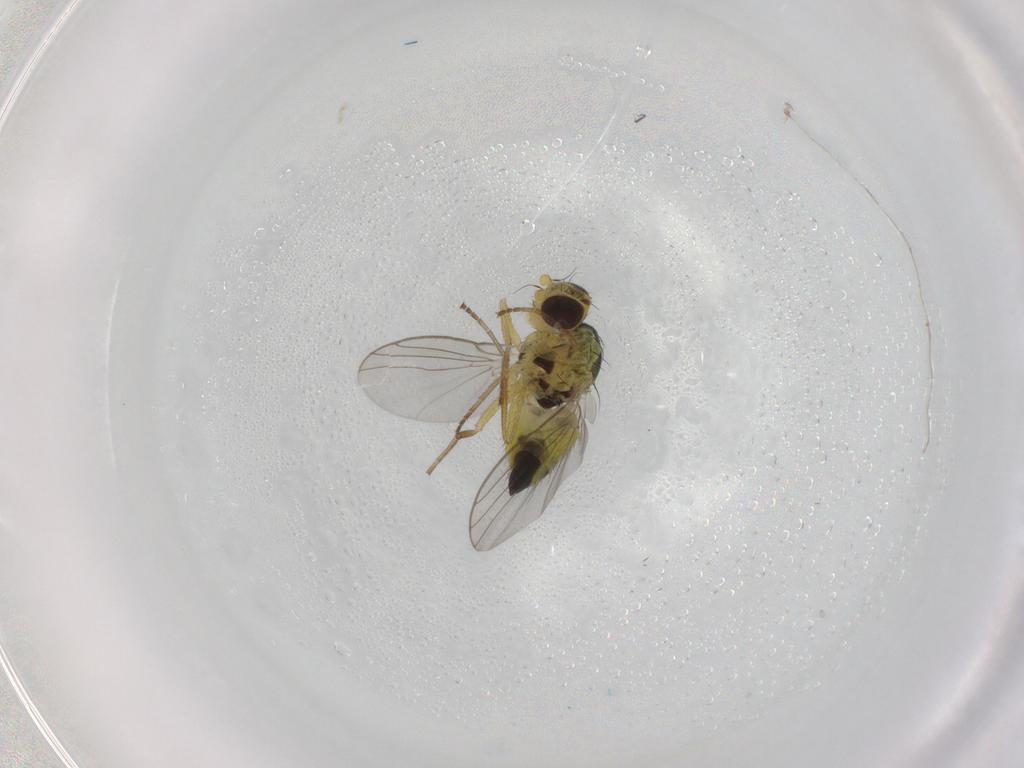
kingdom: Animalia
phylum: Arthropoda
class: Insecta
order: Diptera
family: Agromyzidae
